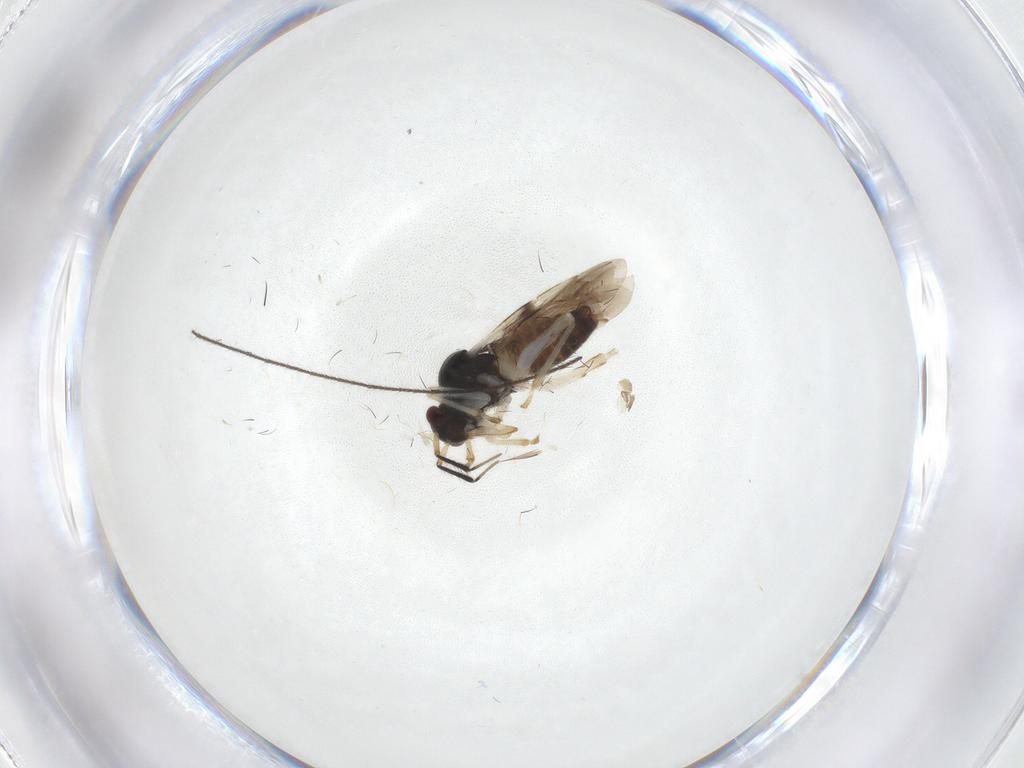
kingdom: Animalia
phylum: Arthropoda
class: Insecta
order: Hemiptera
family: Miridae
